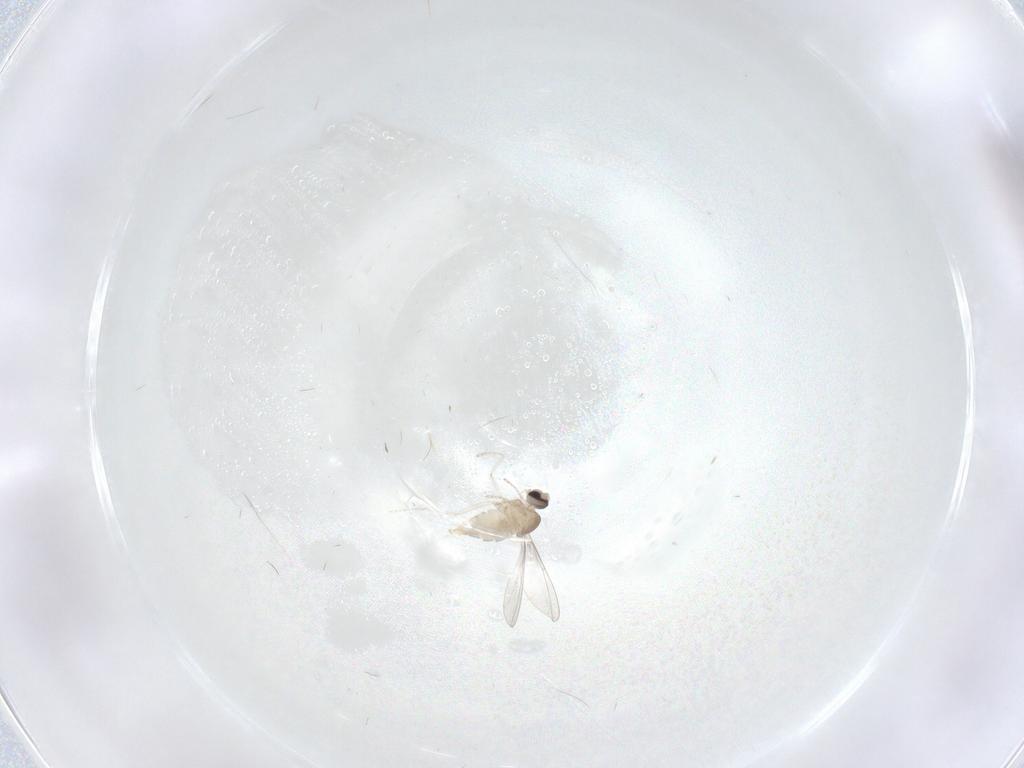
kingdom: Animalia
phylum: Arthropoda
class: Insecta
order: Diptera
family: Cecidomyiidae
